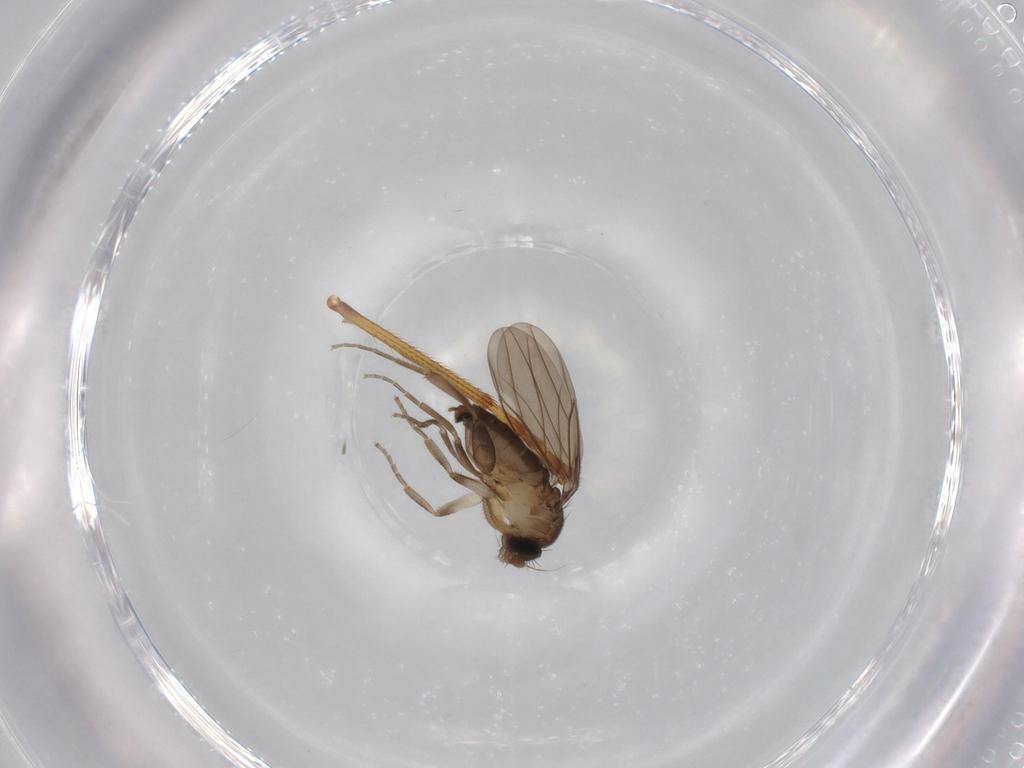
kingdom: Animalia
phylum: Arthropoda
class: Insecta
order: Diptera
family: Psychodidae
